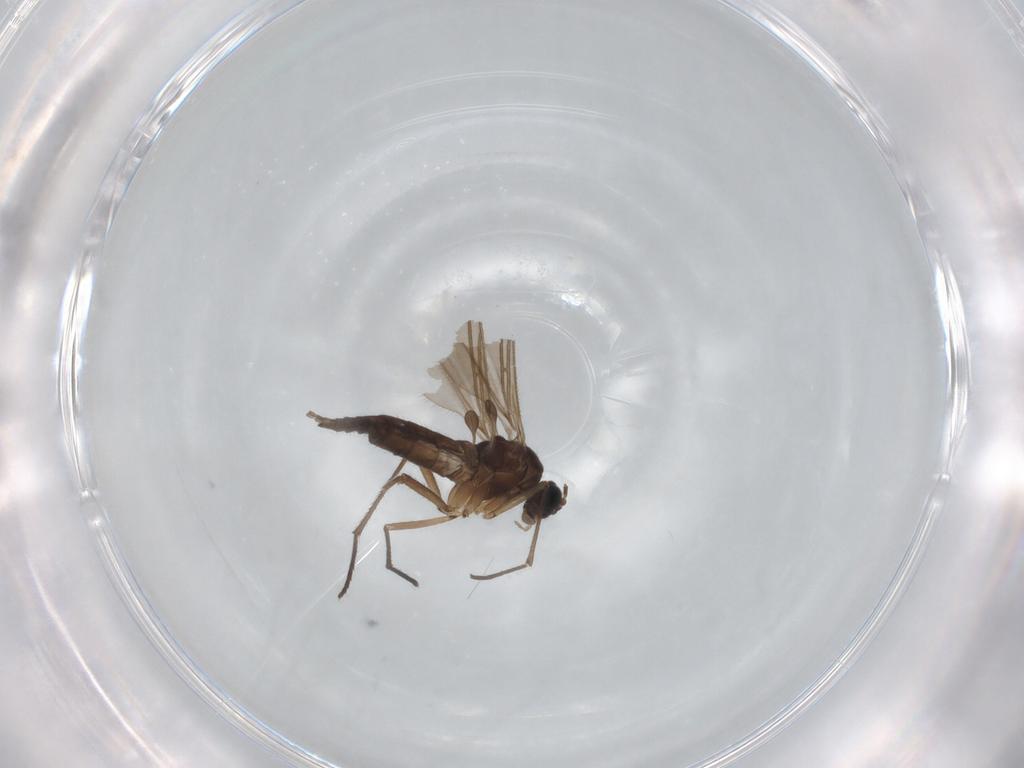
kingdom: Animalia
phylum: Arthropoda
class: Insecta
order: Diptera
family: Sciaridae
